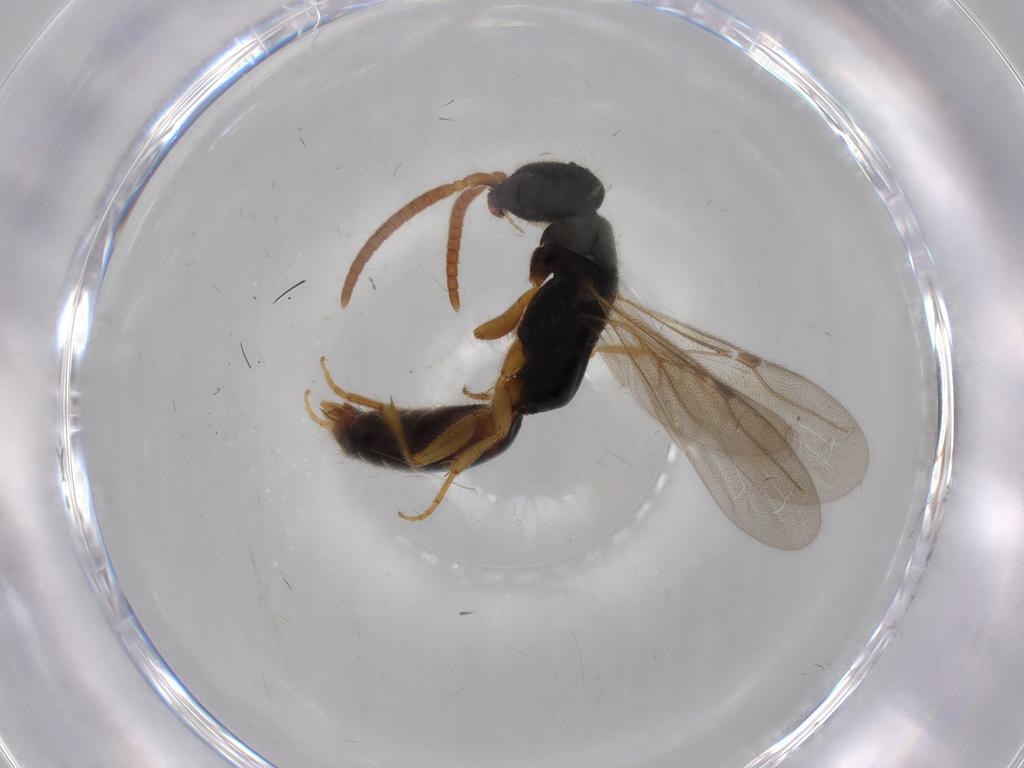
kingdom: Animalia
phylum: Arthropoda
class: Insecta
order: Hymenoptera
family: Bethylidae
